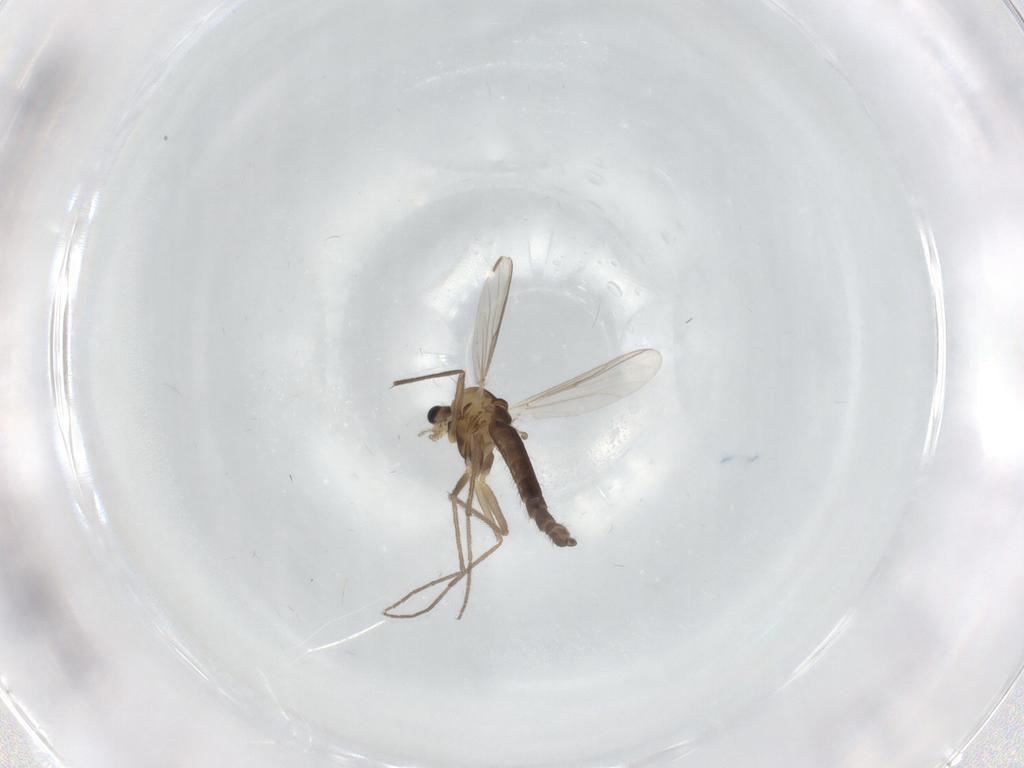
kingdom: Animalia
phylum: Arthropoda
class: Insecta
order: Diptera
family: Chironomidae
